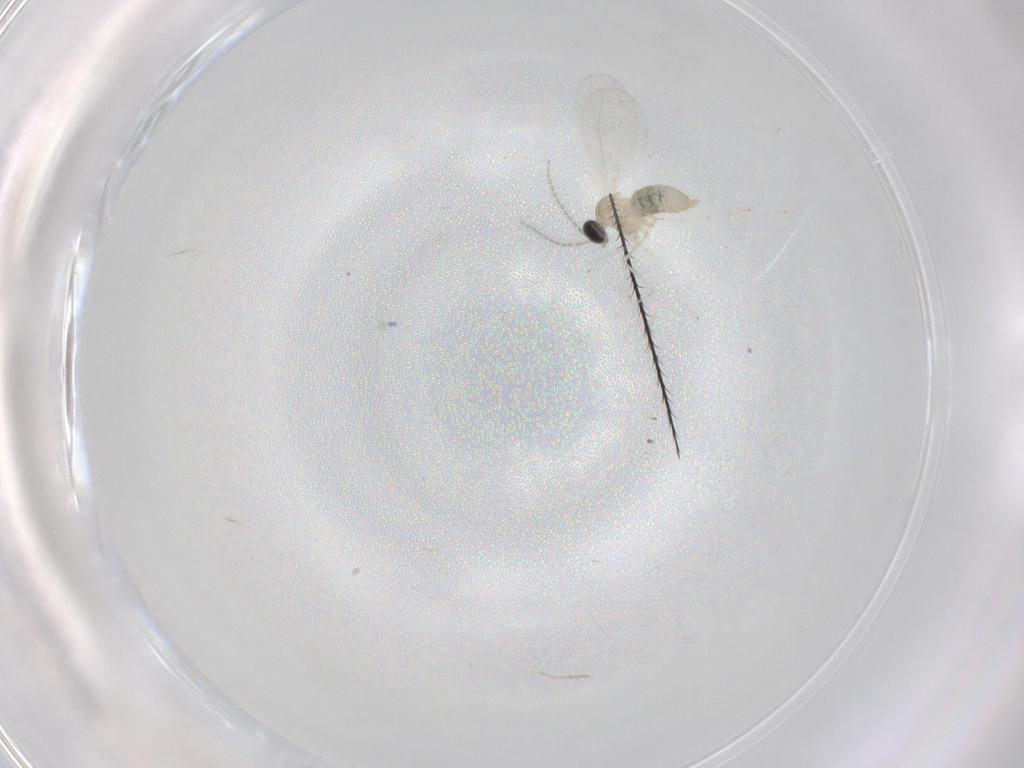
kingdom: Animalia
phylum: Arthropoda
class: Insecta
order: Diptera
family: Cecidomyiidae
